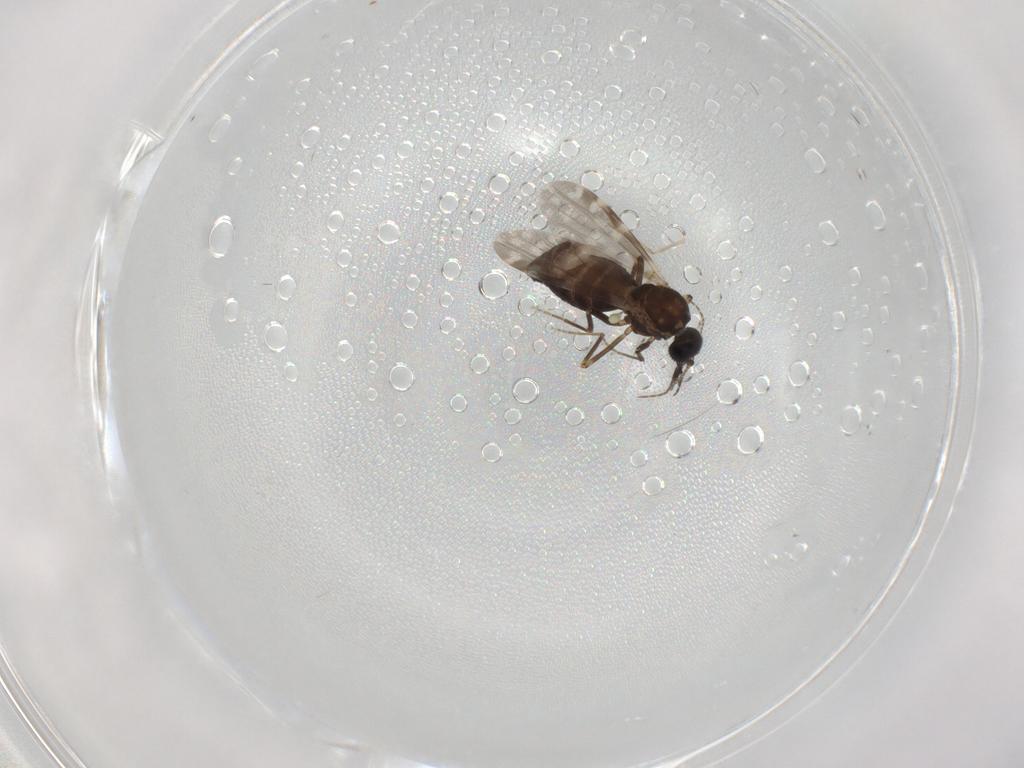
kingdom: Animalia
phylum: Arthropoda
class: Insecta
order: Diptera
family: Ceratopogonidae
